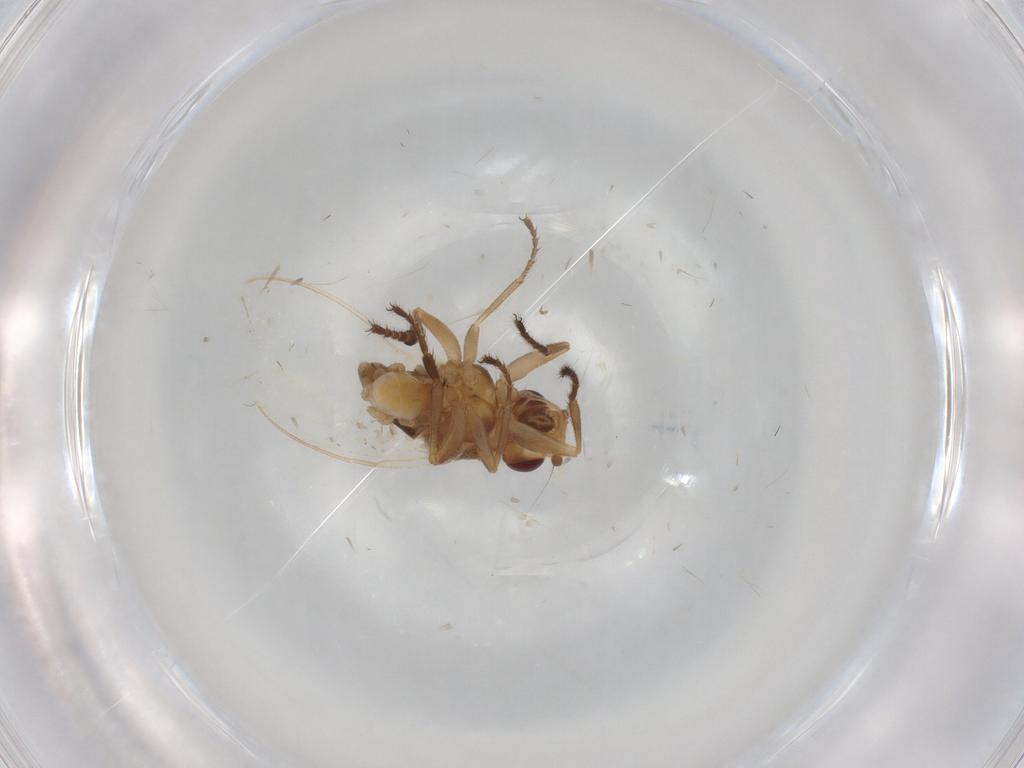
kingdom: Animalia
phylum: Arthropoda
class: Insecta
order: Diptera
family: Sphaeroceridae
